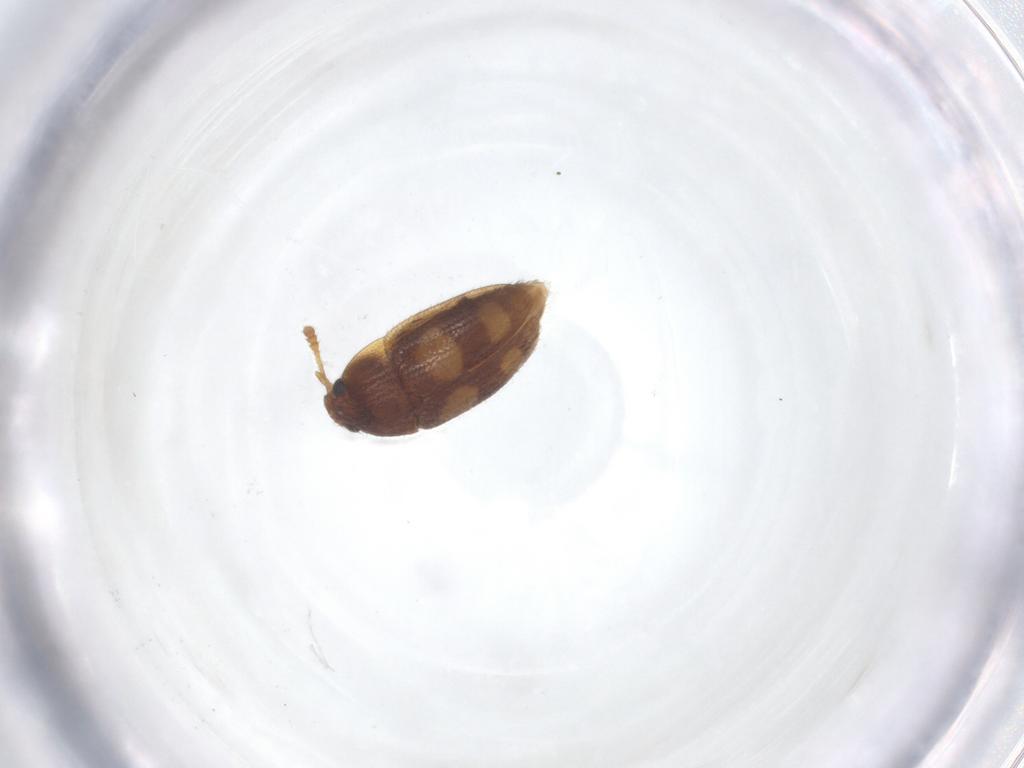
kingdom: Animalia
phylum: Arthropoda
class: Insecta
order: Coleoptera
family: Mycetophagidae
